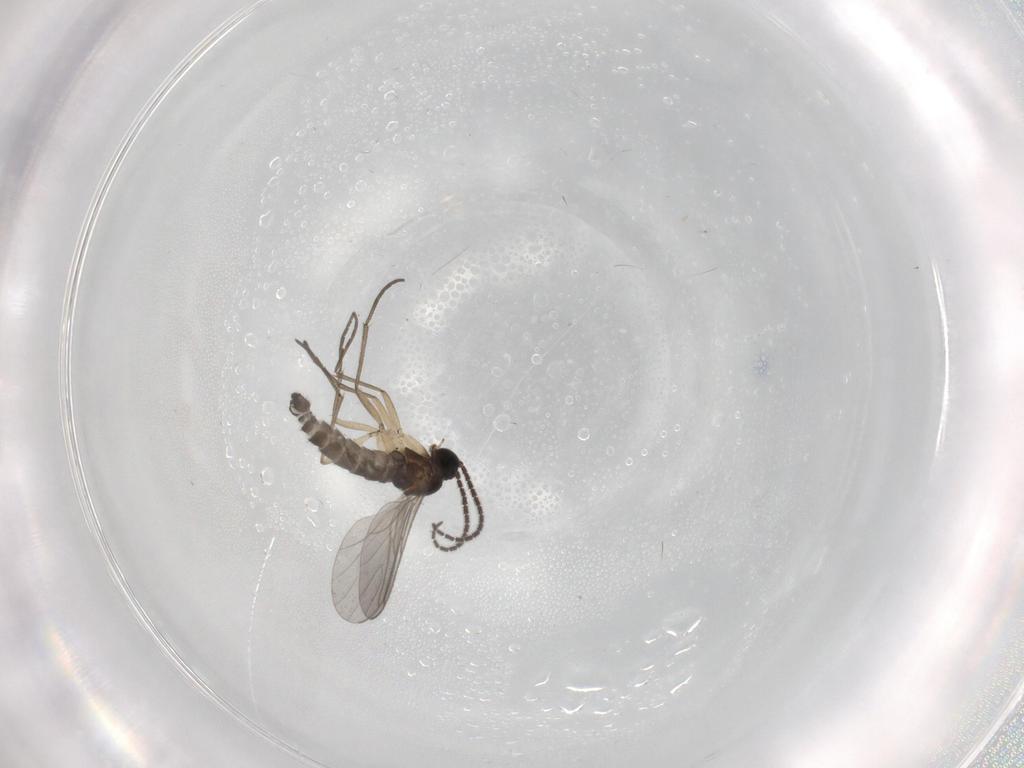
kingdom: Animalia
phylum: Arthropoda
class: Insecta
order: Diptera
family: Sciaridae
